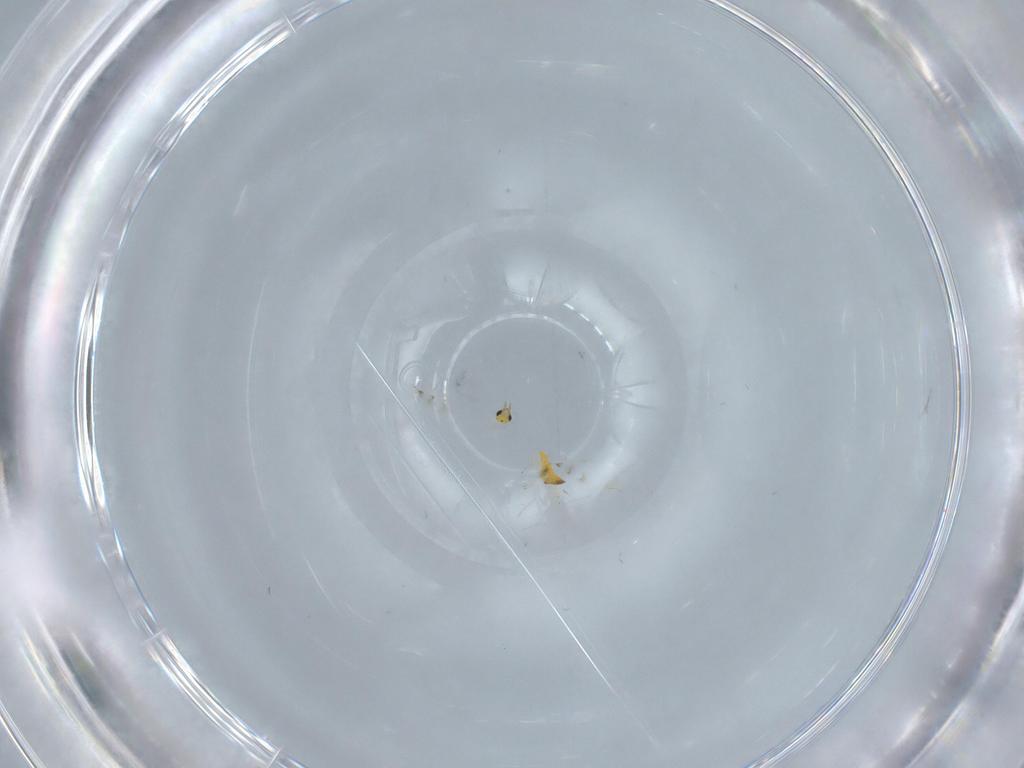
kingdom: Animalia
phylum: Arthropoda
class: Insecta
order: Hymenoptera
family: Trichogrammatidae
